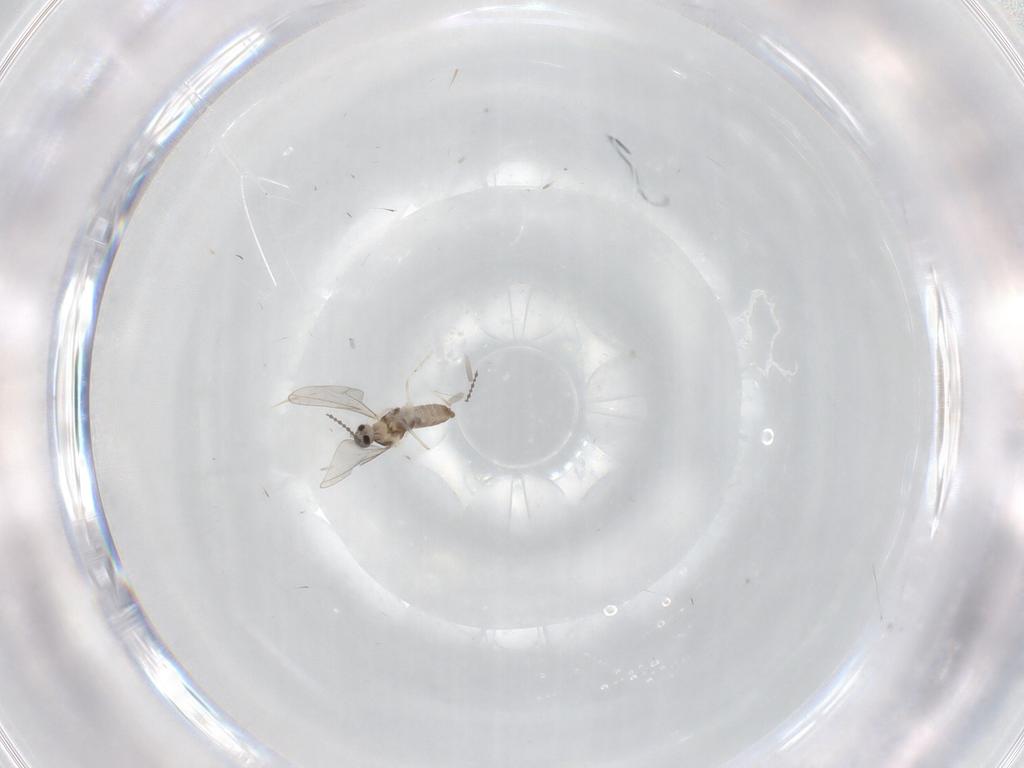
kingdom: Animalia
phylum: Arthropoda
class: Insecta
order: Diptera
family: Cecidomyiidae
